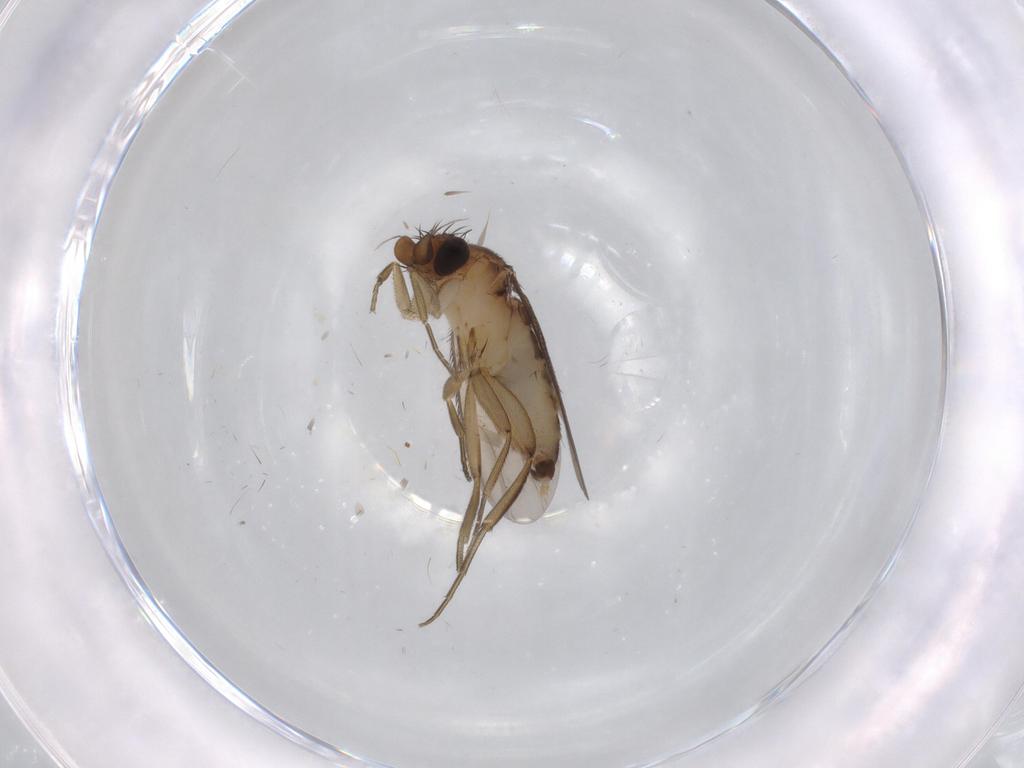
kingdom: Animalia
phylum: Arthropoda
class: Insecta
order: Diptera
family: Phoridae
